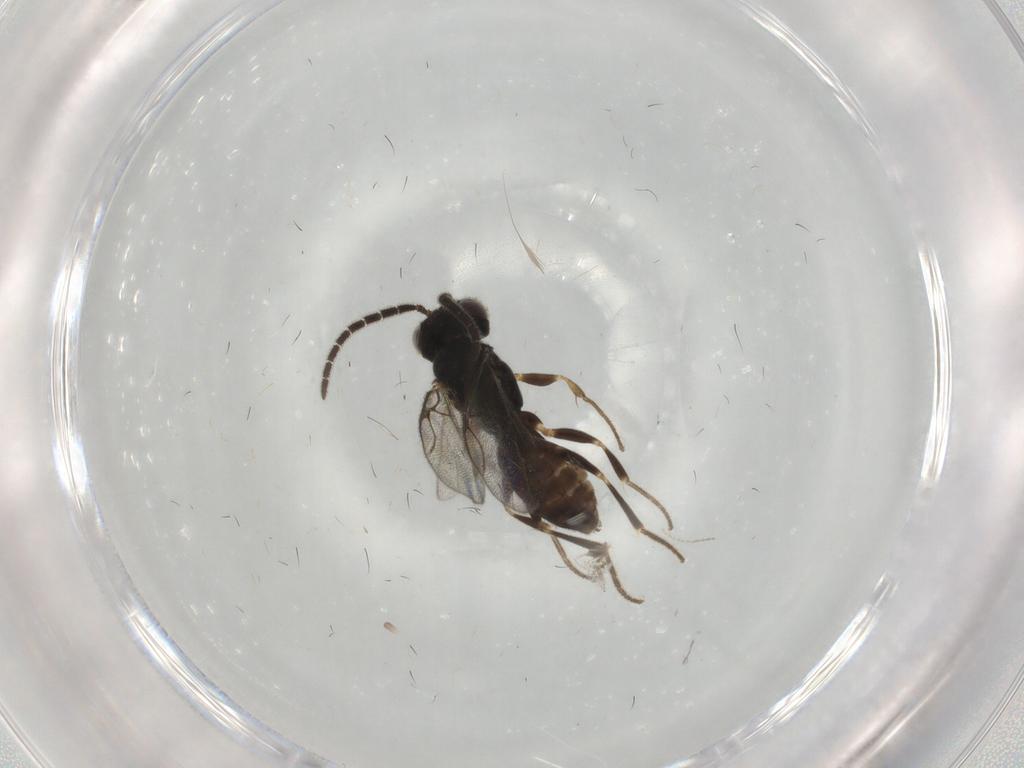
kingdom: Animalia
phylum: Arthropoda
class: Insecta
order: Hymenoptera
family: Dryinidae
